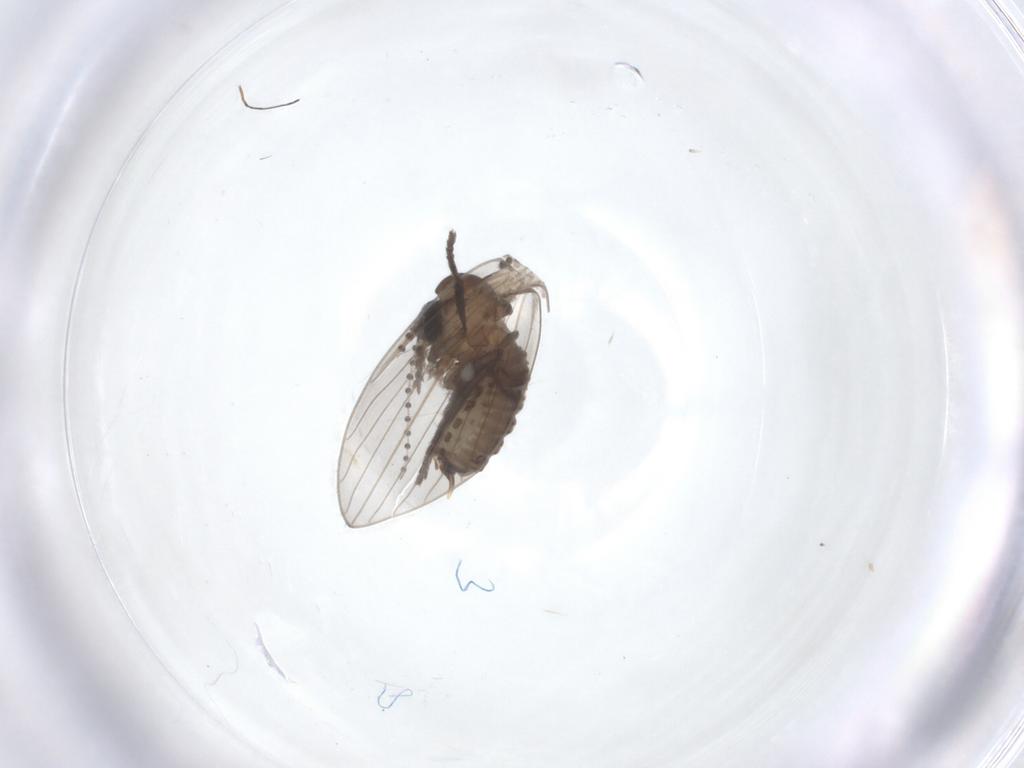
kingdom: Animalia
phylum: Arthropoda
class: Insecta
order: Diptera
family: Psychodidae
